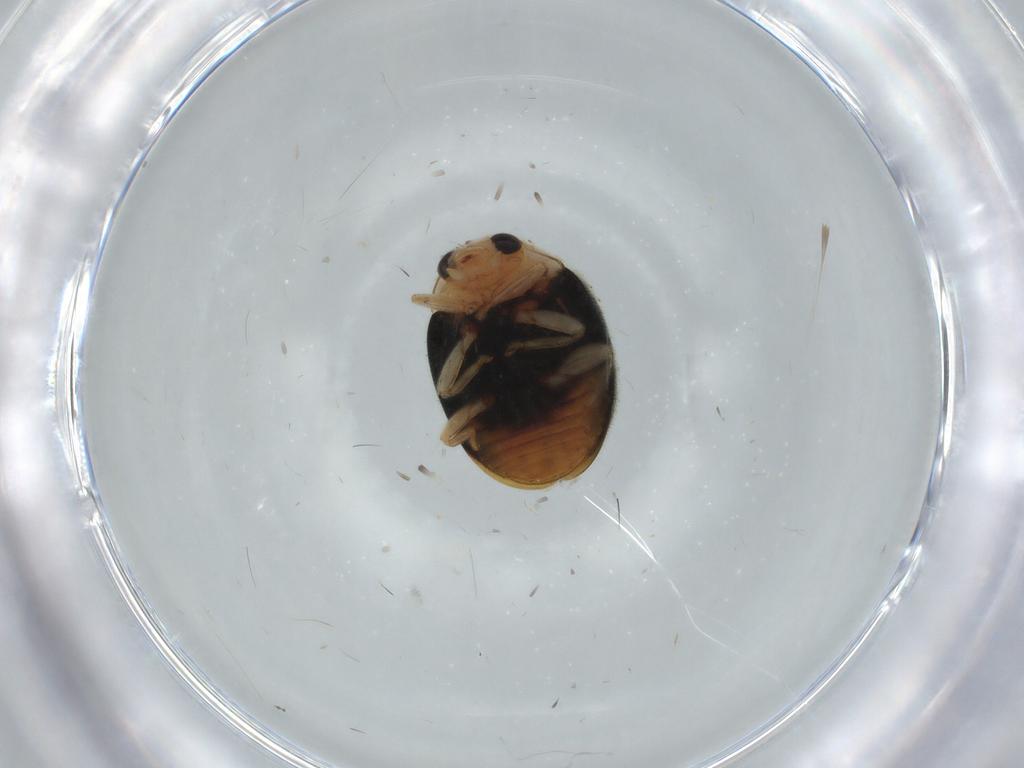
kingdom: Animalia
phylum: Arthropoda
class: Insecta
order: Coleoptera
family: Coccinellidae
